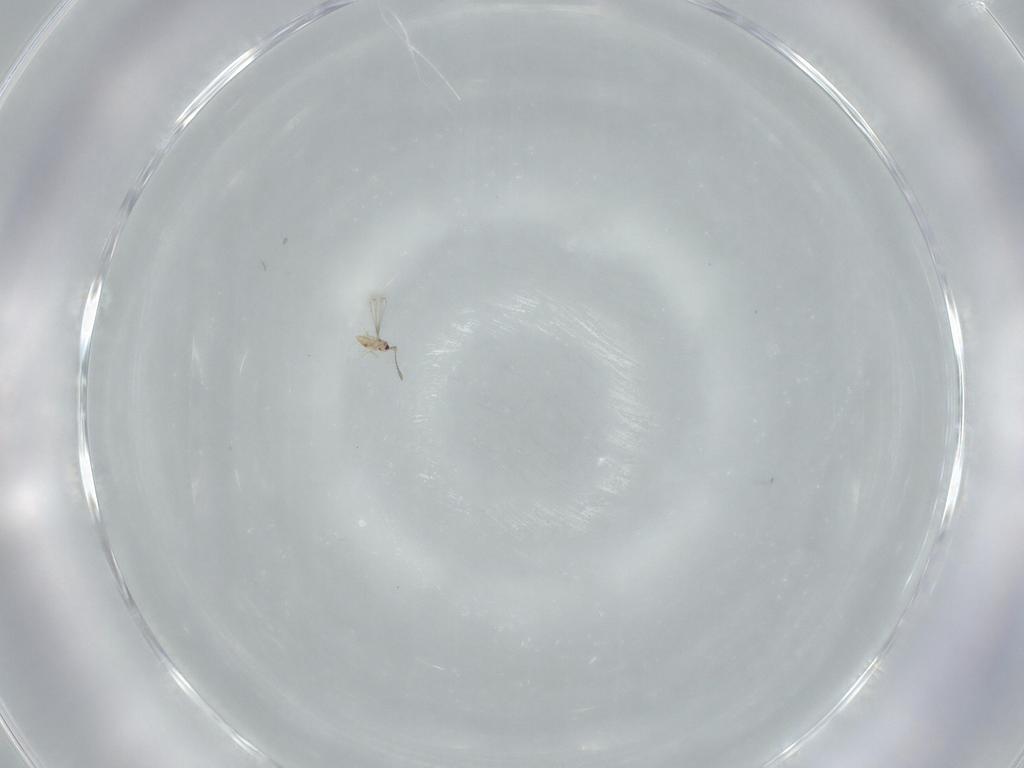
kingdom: Animalia
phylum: Arthropoda
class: Insecta
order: Hymenoptera
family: Mymaridae
